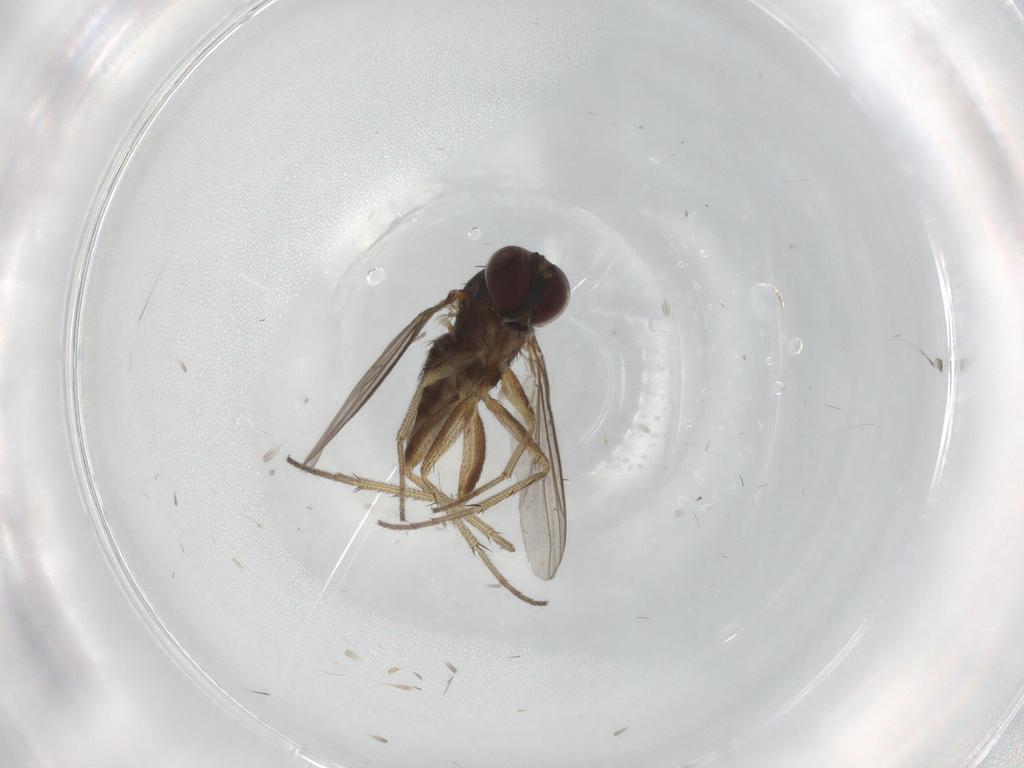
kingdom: Animalia
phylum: Arthropoda
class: Insecta
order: Diptera
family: Dolichopodidae
